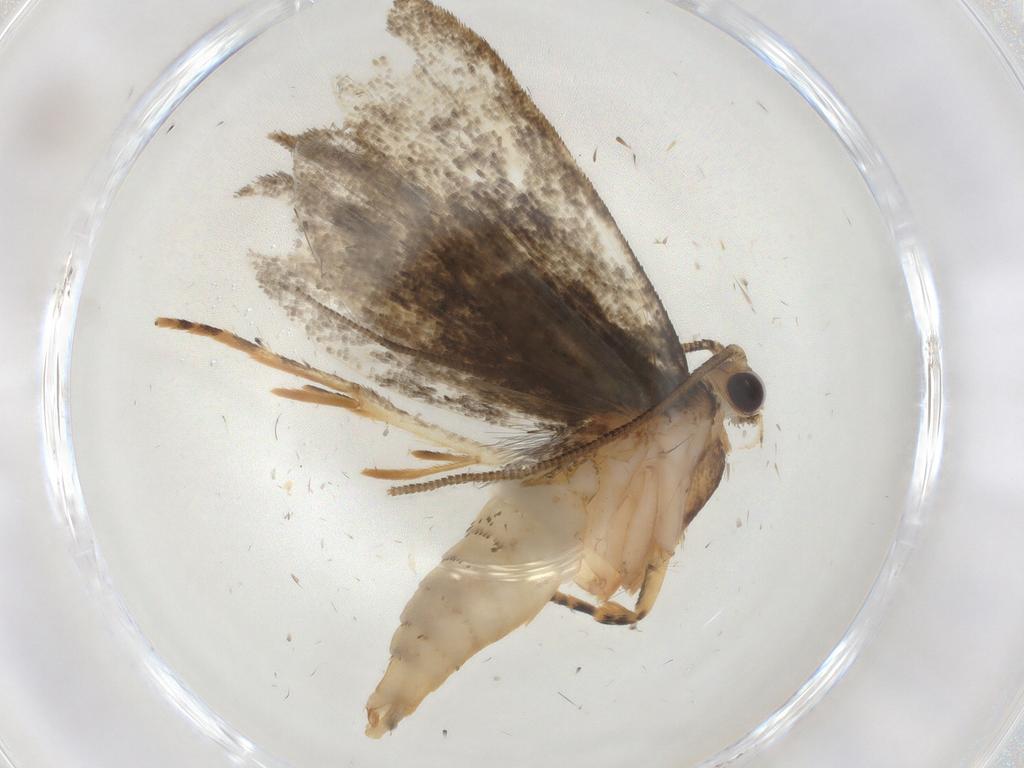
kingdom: Animalia
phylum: Arthropoda
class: Insecta
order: Lepidoptera
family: Tineidae
